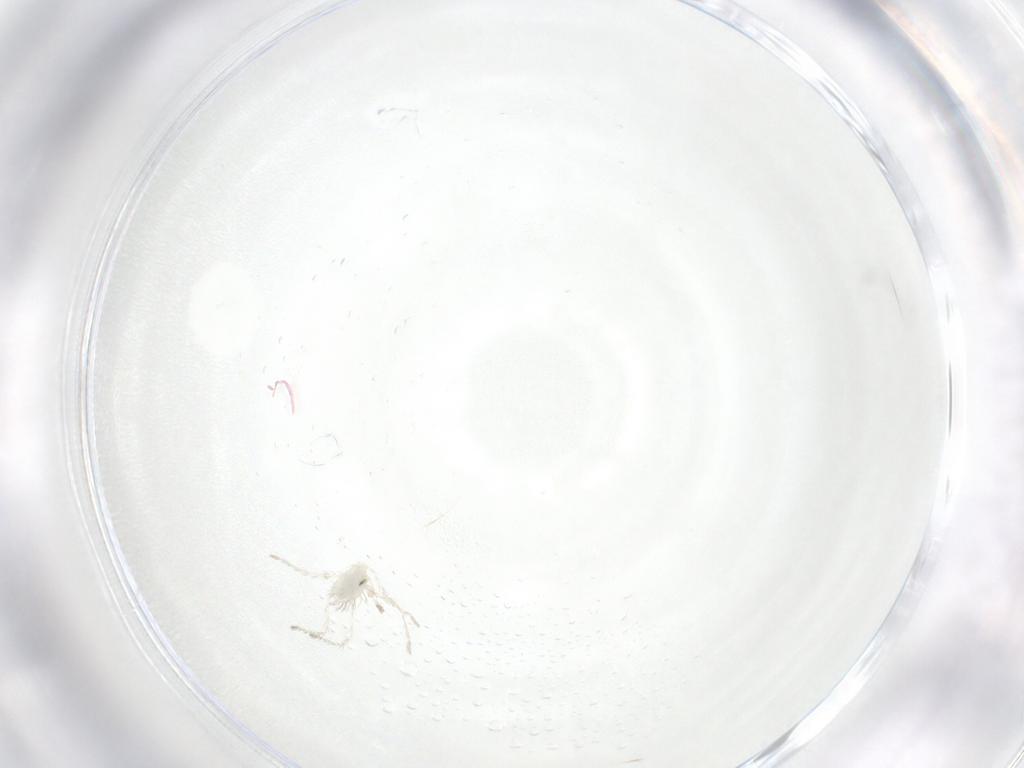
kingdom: Animalia
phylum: Arthropoda
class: Arachnida
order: Trombidiformes
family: Erythraeidae
